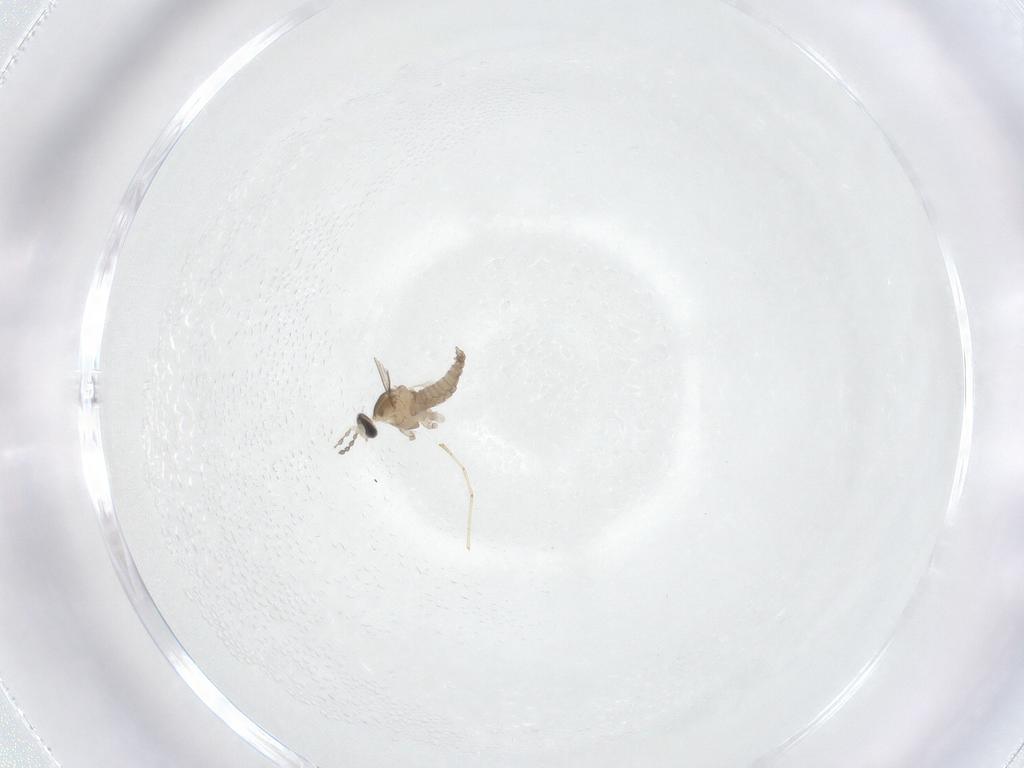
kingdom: Animalia
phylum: Arthropoda
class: Insecta
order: Diptera
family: Cecidomyiidae
